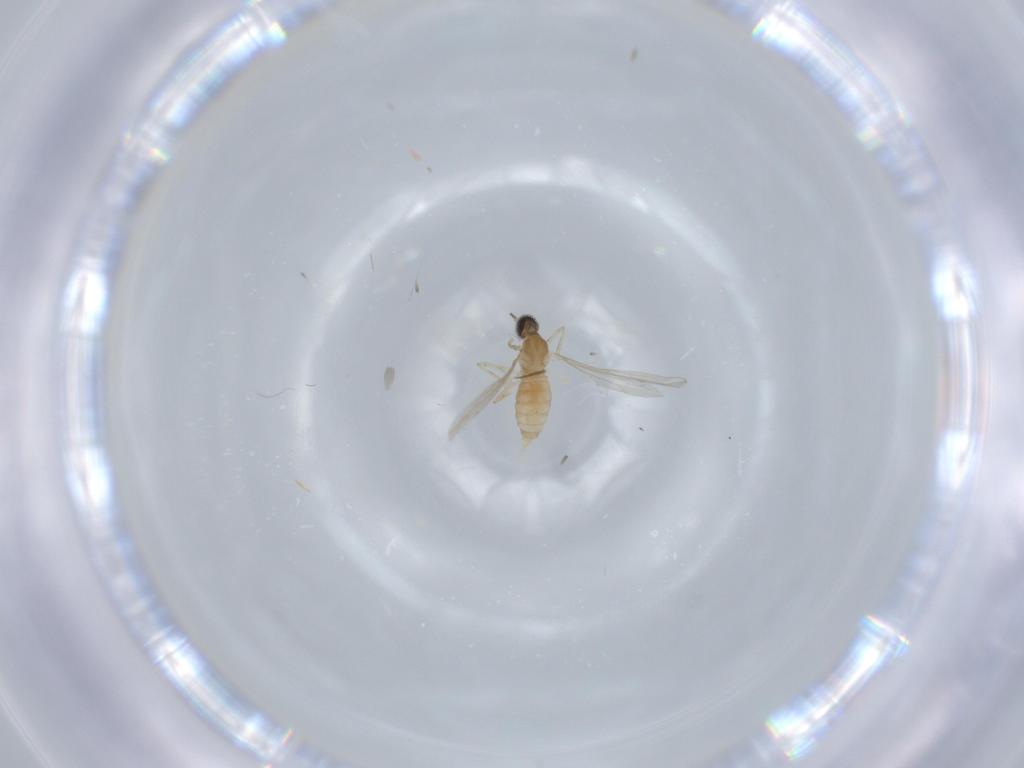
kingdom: Animalia
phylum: Arthropoda
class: Insecta
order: Diptera
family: Cecidomyiidae
